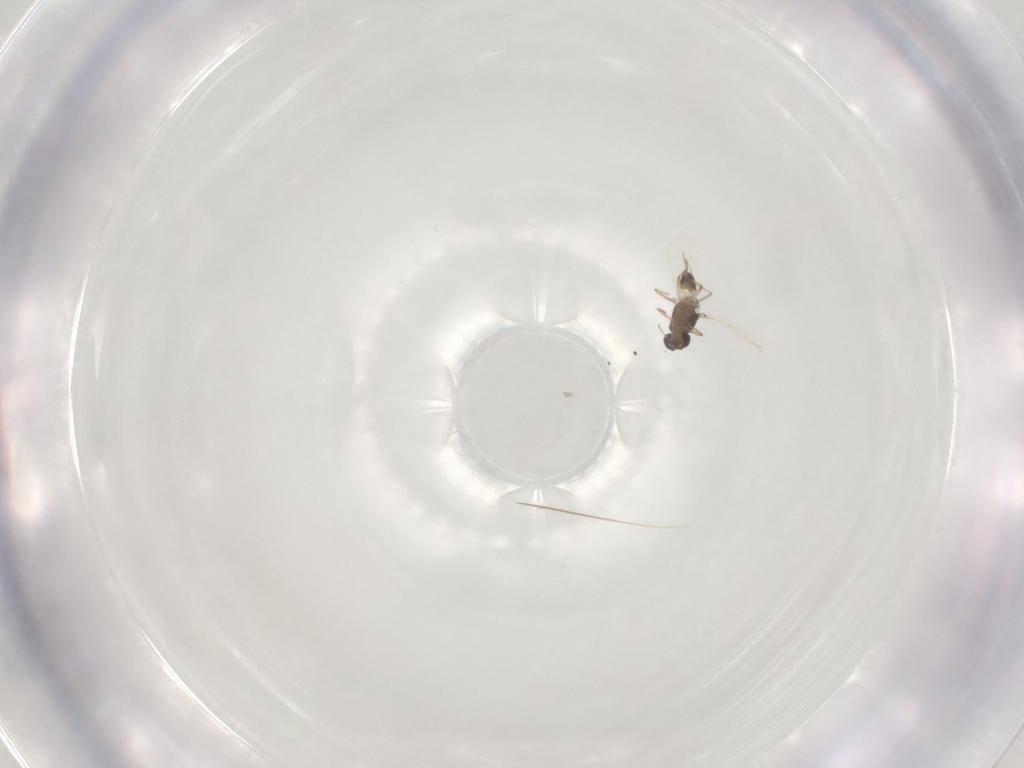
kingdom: Animalia
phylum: Arthropoda
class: Insecta
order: Diptera
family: Ceratopogonidae
